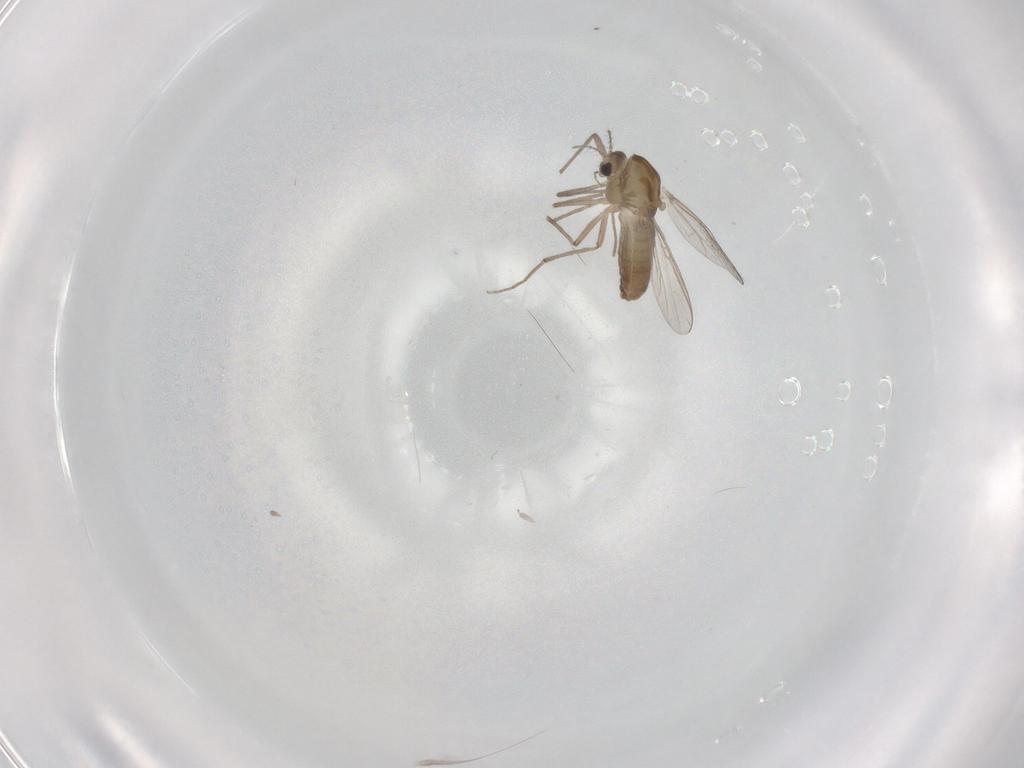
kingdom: Animalia
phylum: Arthropoda
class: Insecta
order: Diptera
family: Chironomidae
